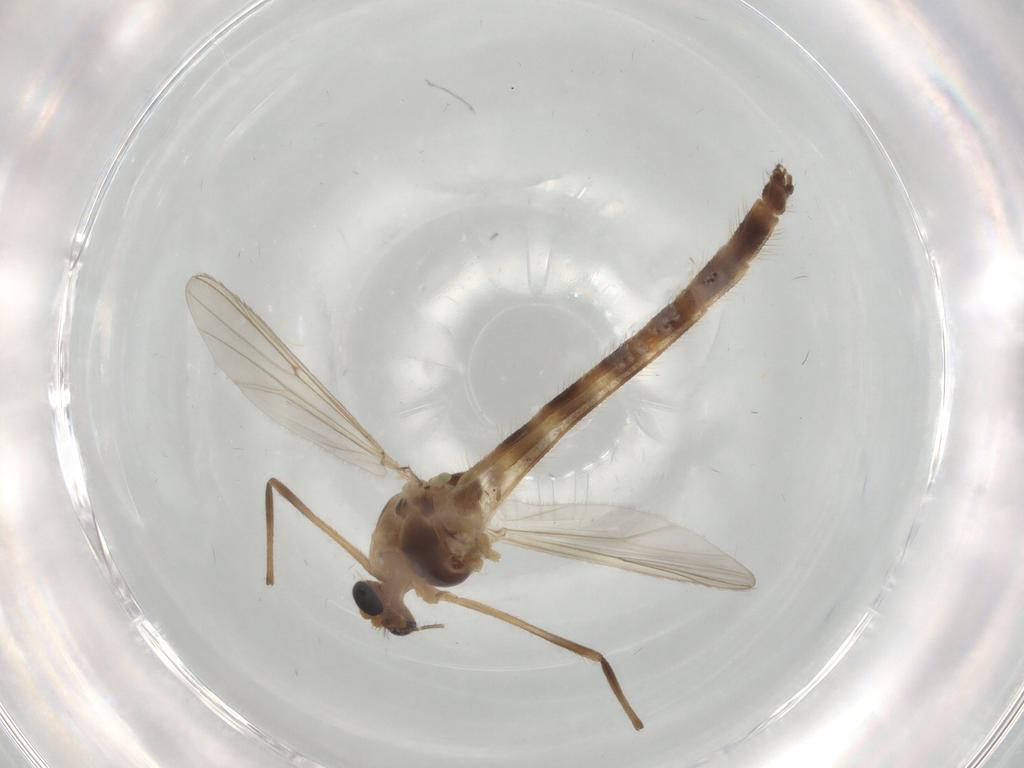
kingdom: Animalia
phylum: Arthropoda
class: Insecta
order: Diptera
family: Chironomidae
